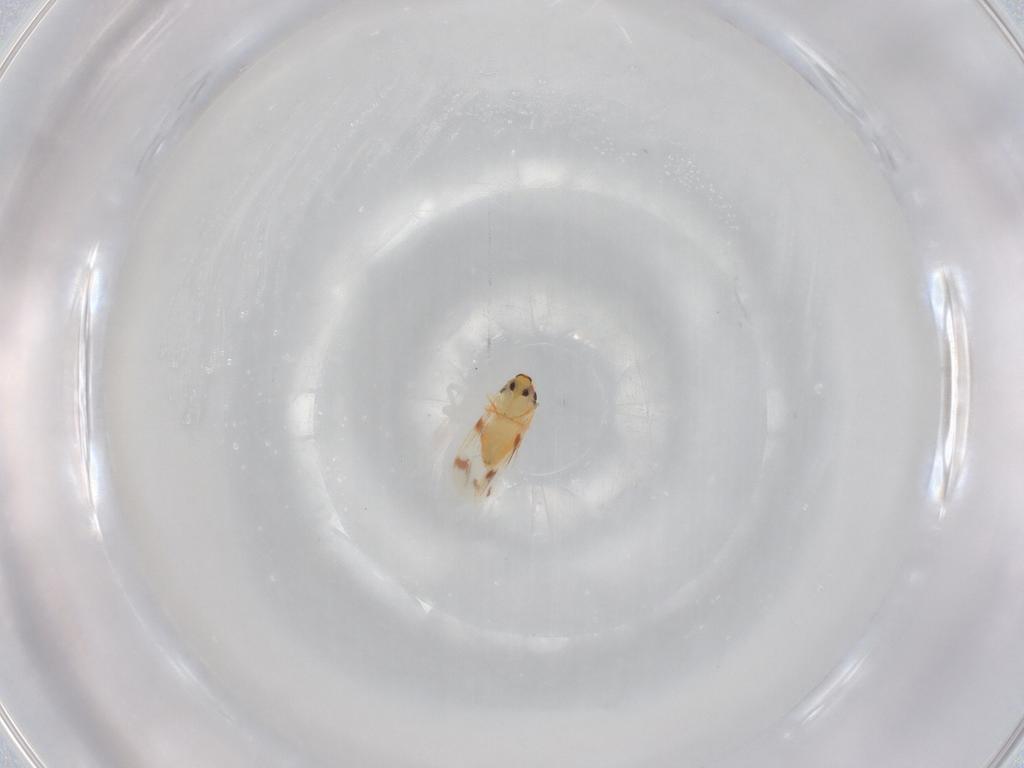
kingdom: Animalia
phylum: Arthropoda
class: Insecta
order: Hemiptera
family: Aleyrodidae
